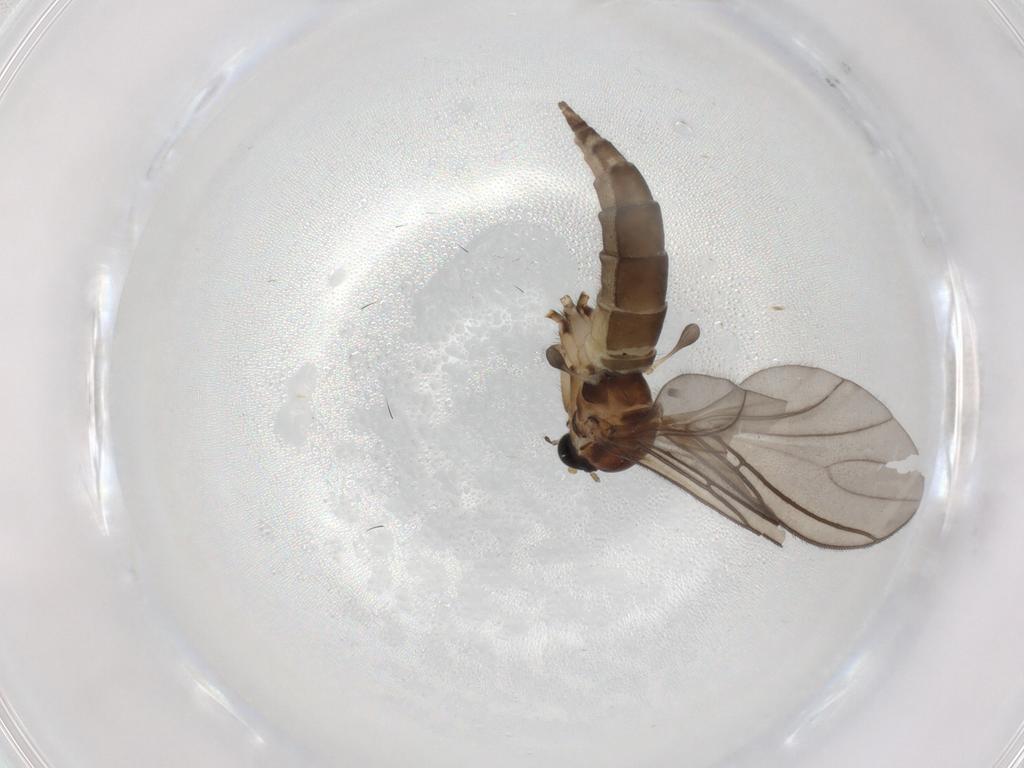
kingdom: Animalia
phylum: Arthropoda
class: Insecta
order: Diptera
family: Sciaridae
